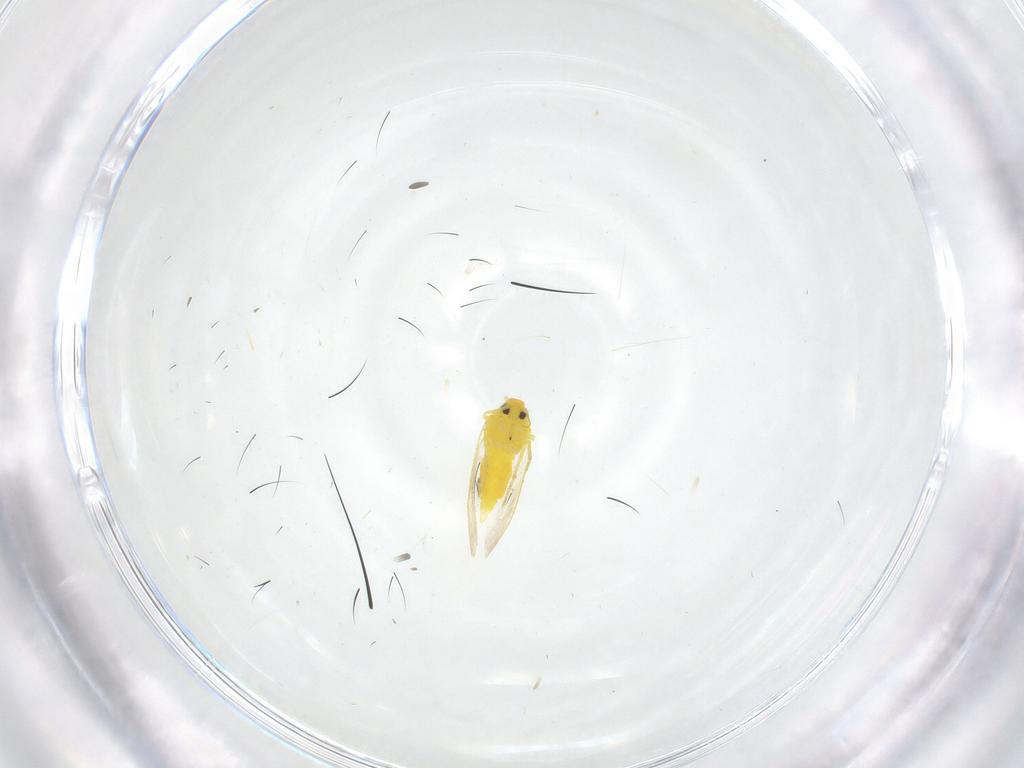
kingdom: Animalia
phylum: Arthropoda
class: Insecta
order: Hemiptera
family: Aleyrodidae
